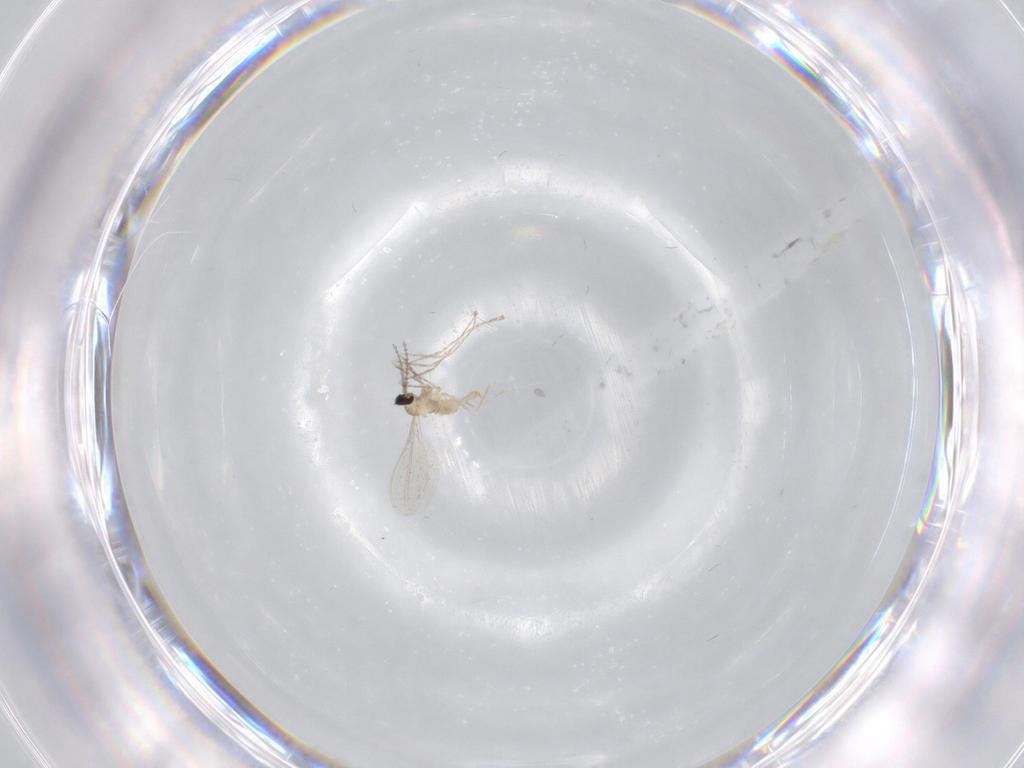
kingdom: Animalia
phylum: Arthropoda
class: Insecta
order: Diptera
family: Cecidomyiidae
